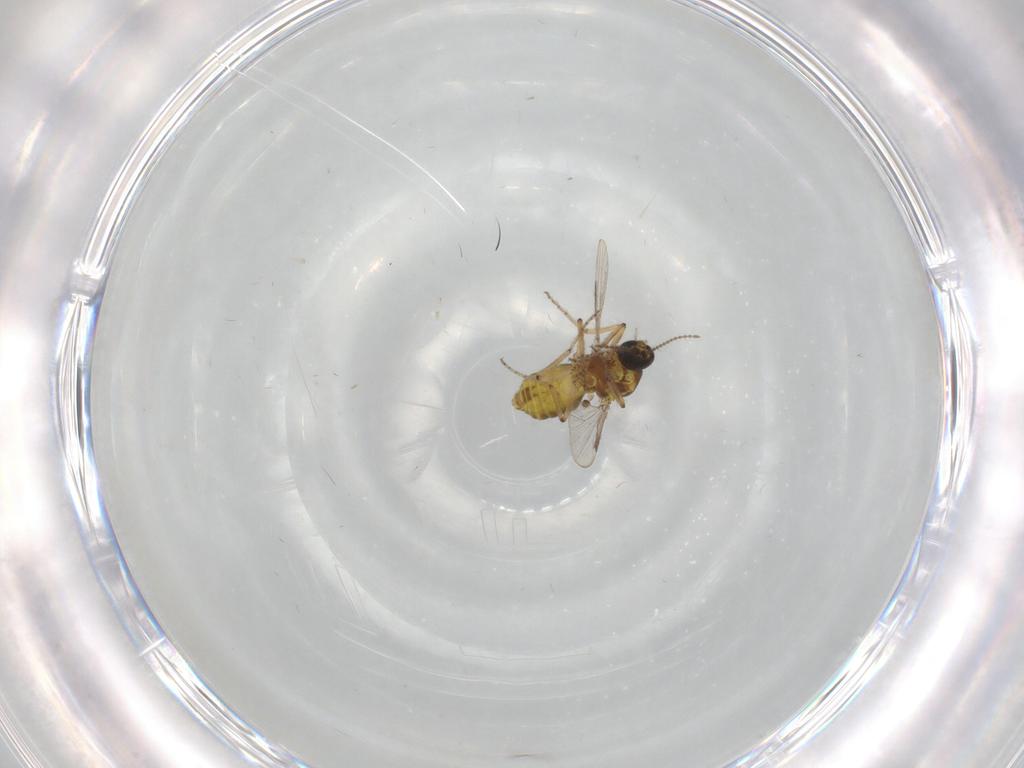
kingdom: Animalia
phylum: Arthropoda
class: Insecta
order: Diptera
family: Ceratopogonidae
